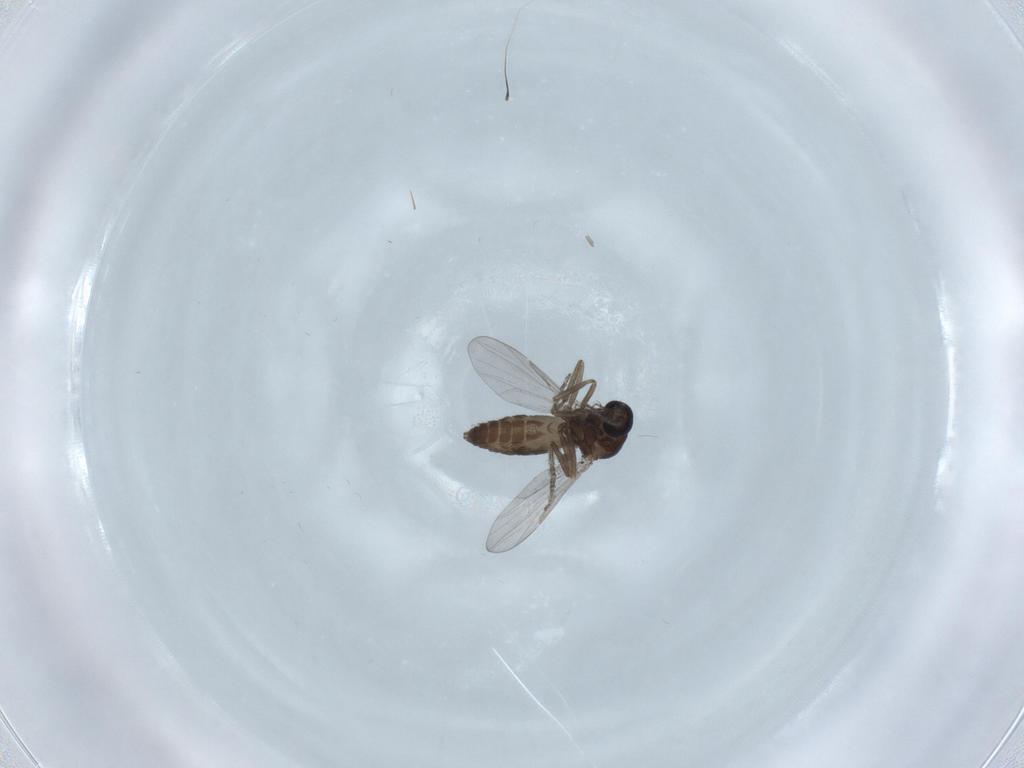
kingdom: Animalia
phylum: Arthropoda
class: Insecta
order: Diptera
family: Ceratopogonidae
